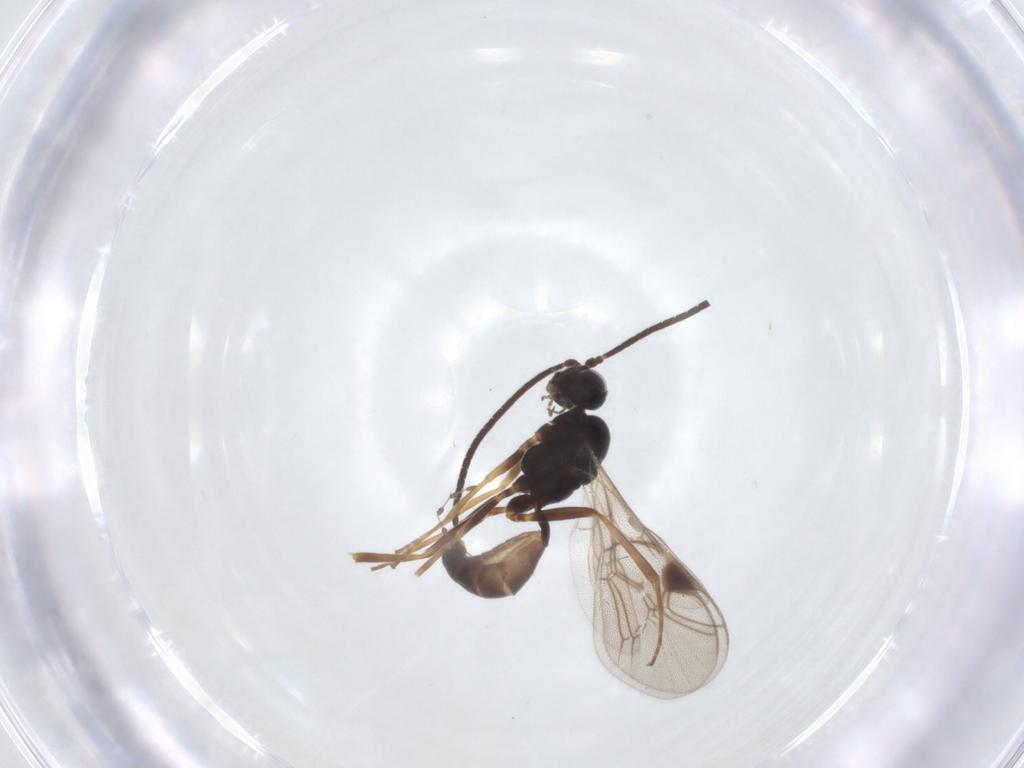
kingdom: Animalia
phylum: Arthropoda
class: Insecta
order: Hymenoptera
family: Ichneumonidae
